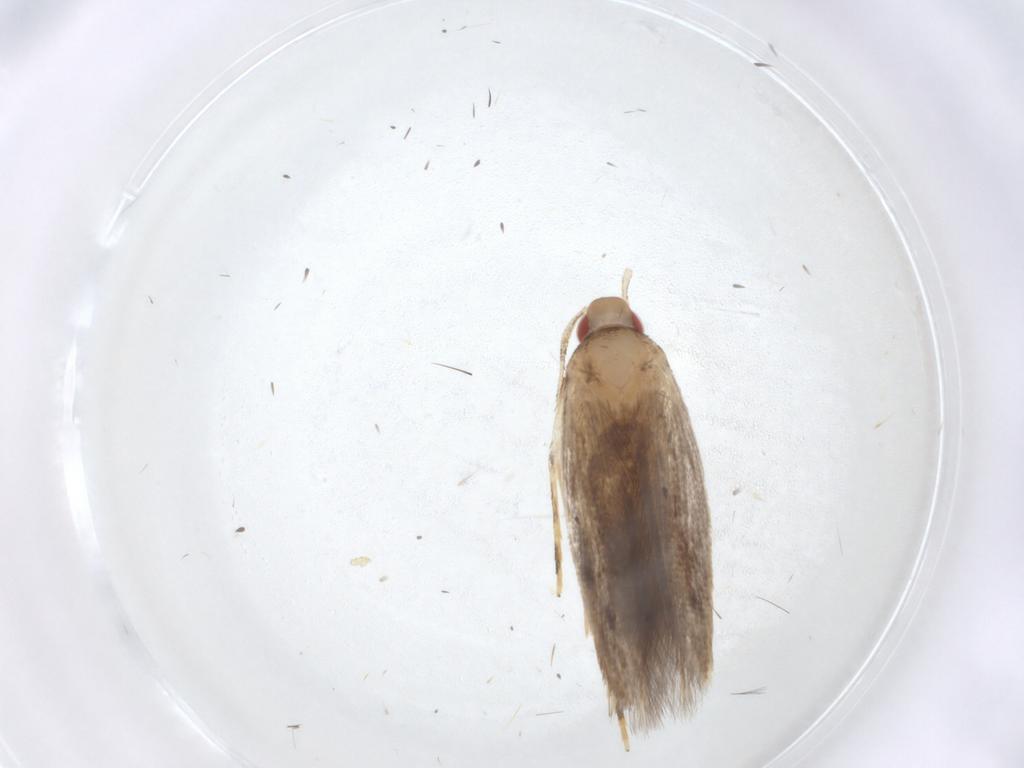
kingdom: Animalia
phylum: Arthropoda
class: Insecta
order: Lepidoptera
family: Cosmopterigidae
